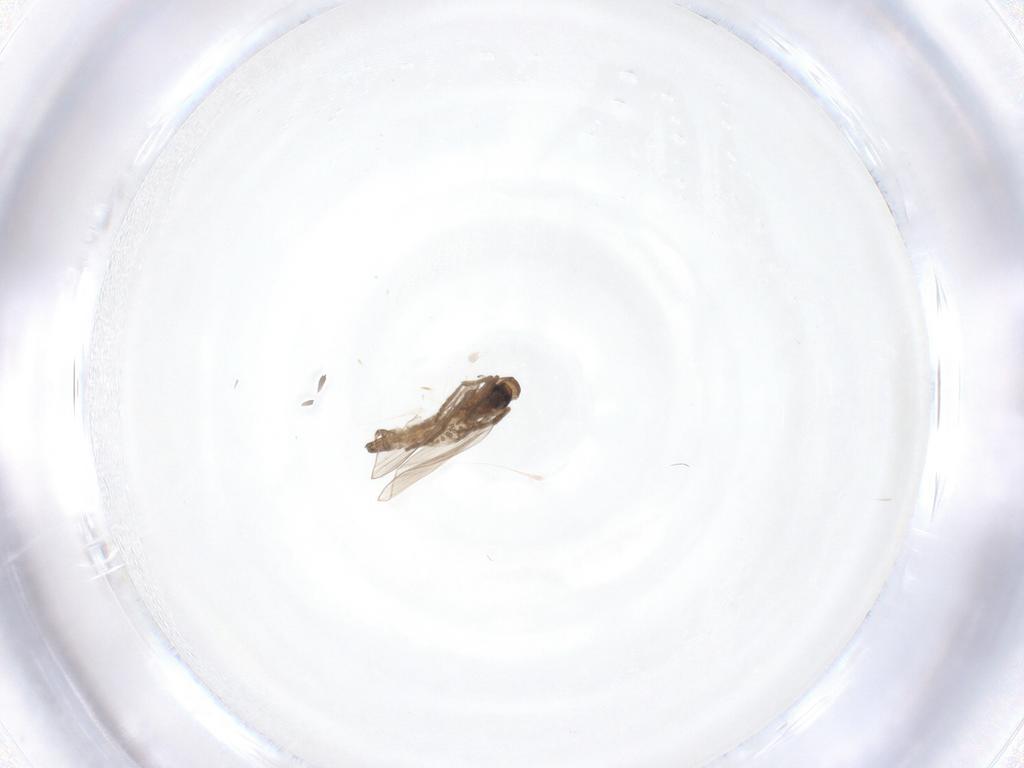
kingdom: Animalia
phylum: Arthropoda
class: Insecta
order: Diptera
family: Psychodidae
